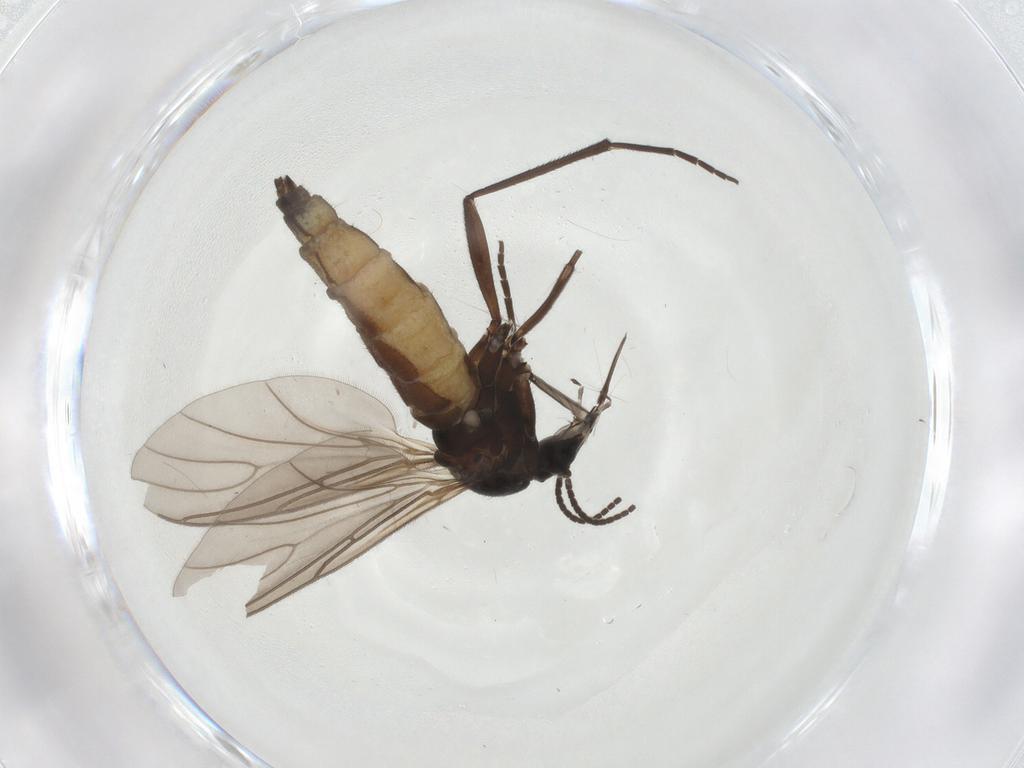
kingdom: Animalia
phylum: Arthropoda
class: Insecta
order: Diptera
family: Sciaridae
